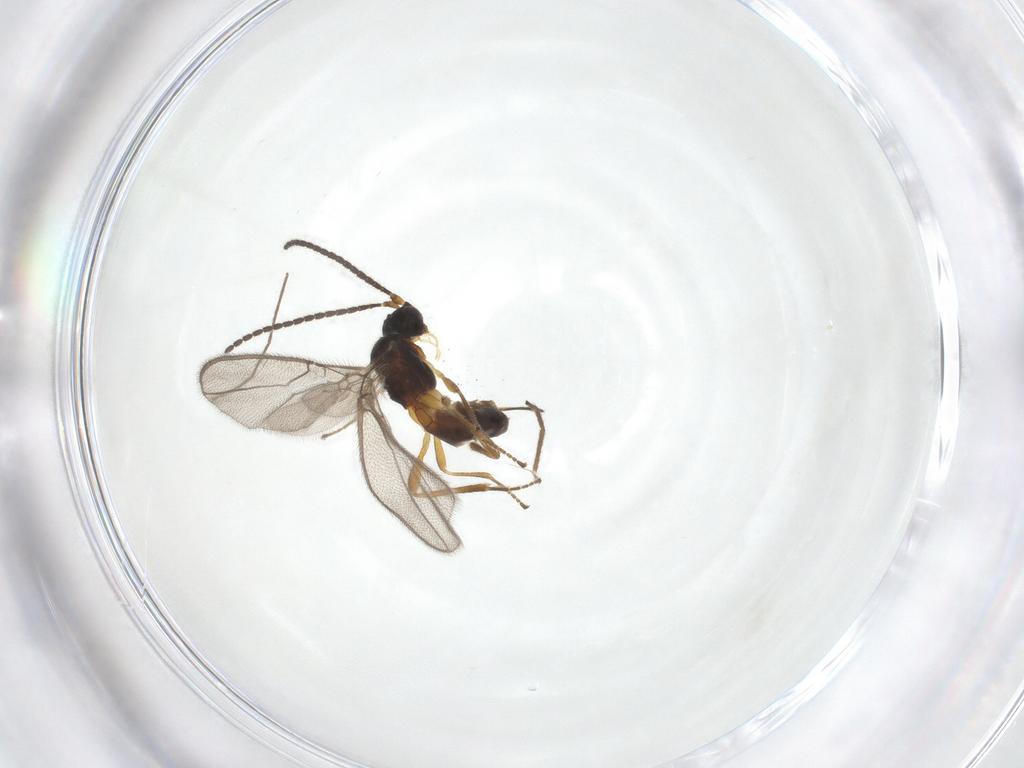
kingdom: Animalia
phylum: Arthropoda
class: Insecta
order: Hymenoptera
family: Braconidae
